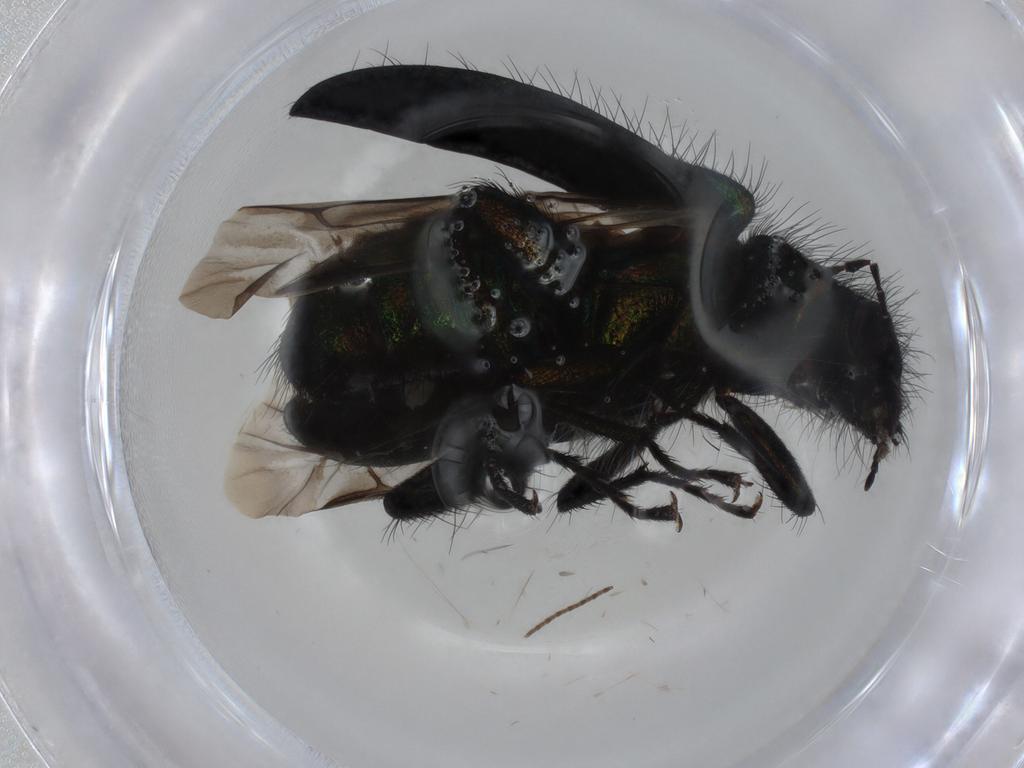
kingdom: Animalia
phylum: Arthropoda
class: Insecta
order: Coleoptera
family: Melyridae
